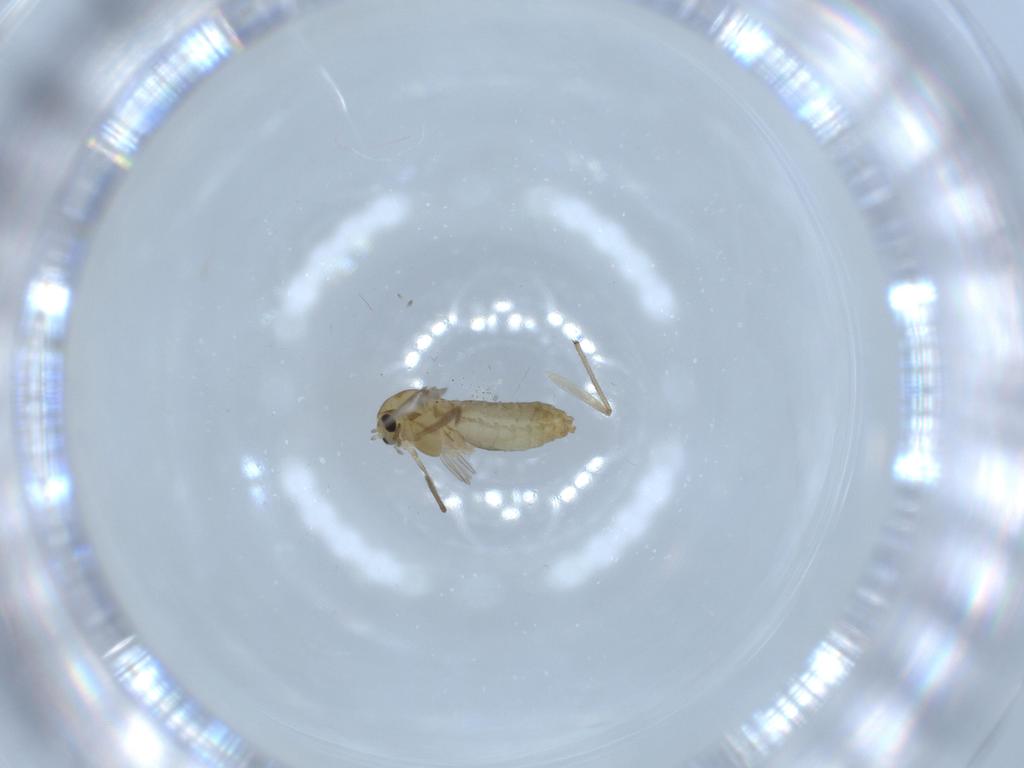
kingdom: Animalia
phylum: Arthropoda
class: Insecta
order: Diptera
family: Chironomidae
